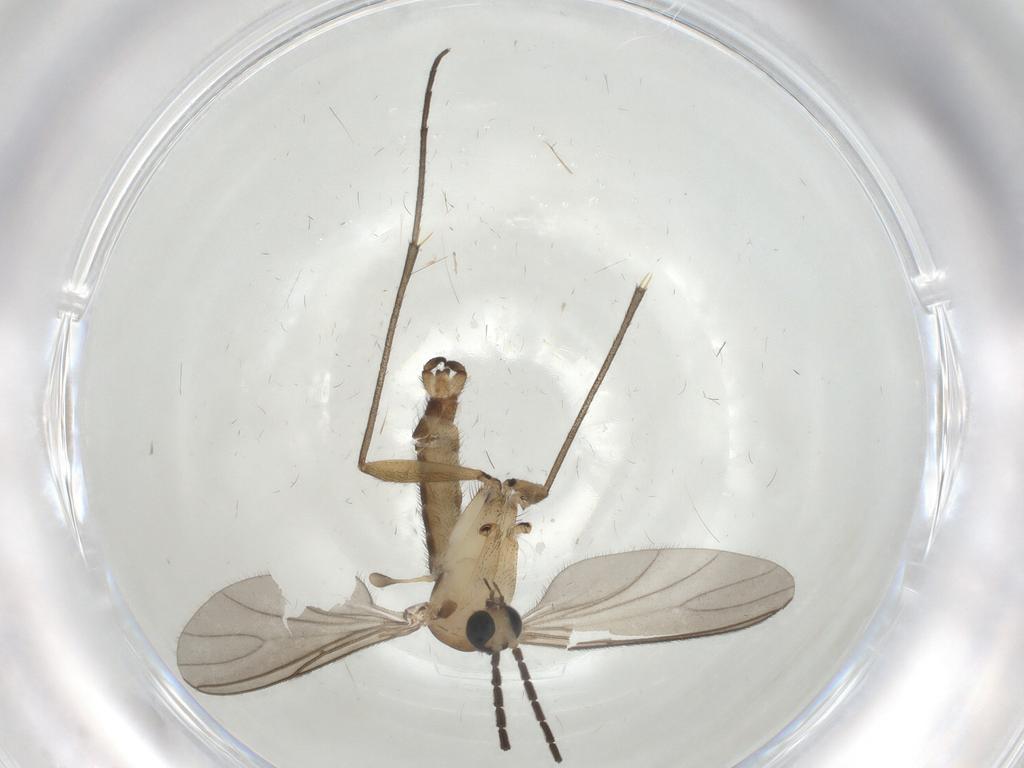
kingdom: Animalia
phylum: Arthropoda
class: Insecta
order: Diptera
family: Sciaridae
